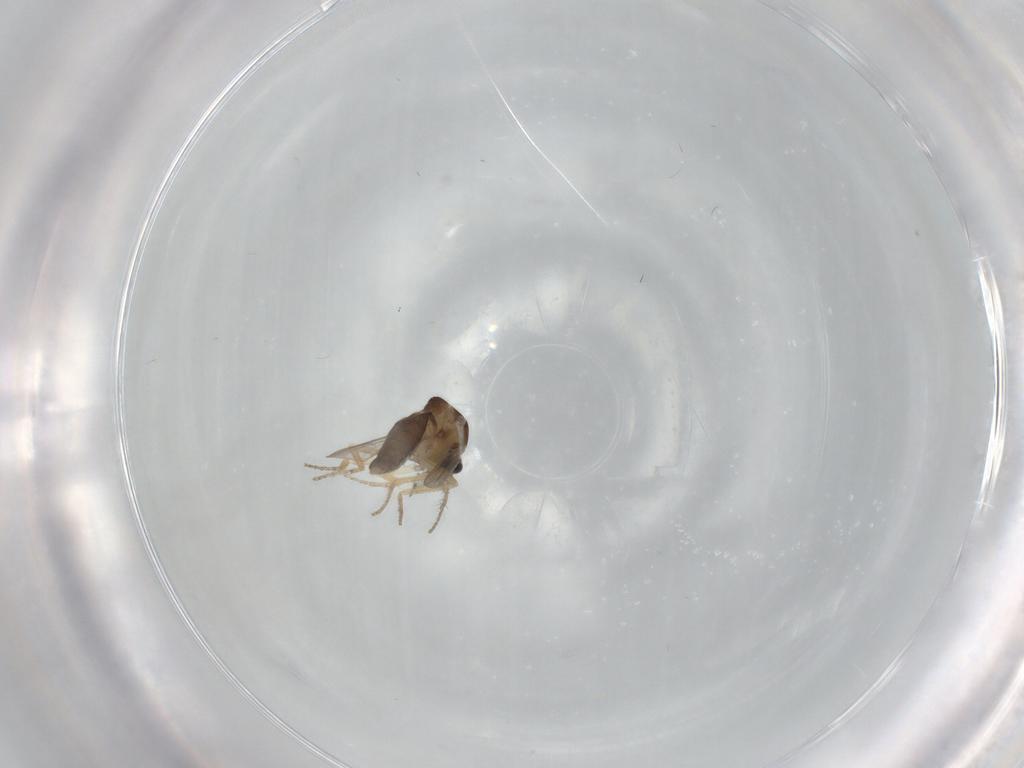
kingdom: Animalia
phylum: Arthropoda
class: Insecta
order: Diptera
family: Ceratopogonidae
